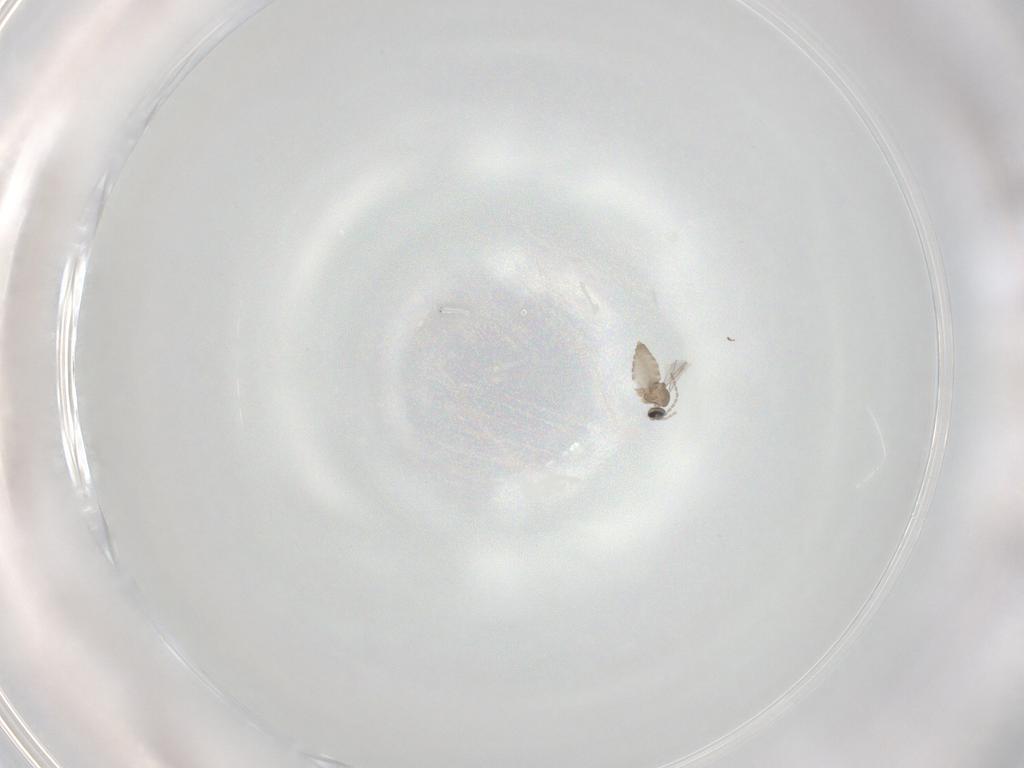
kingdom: Animalia
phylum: Arthropoda
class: Insecta
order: Diptera
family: Cecidomyiidae
